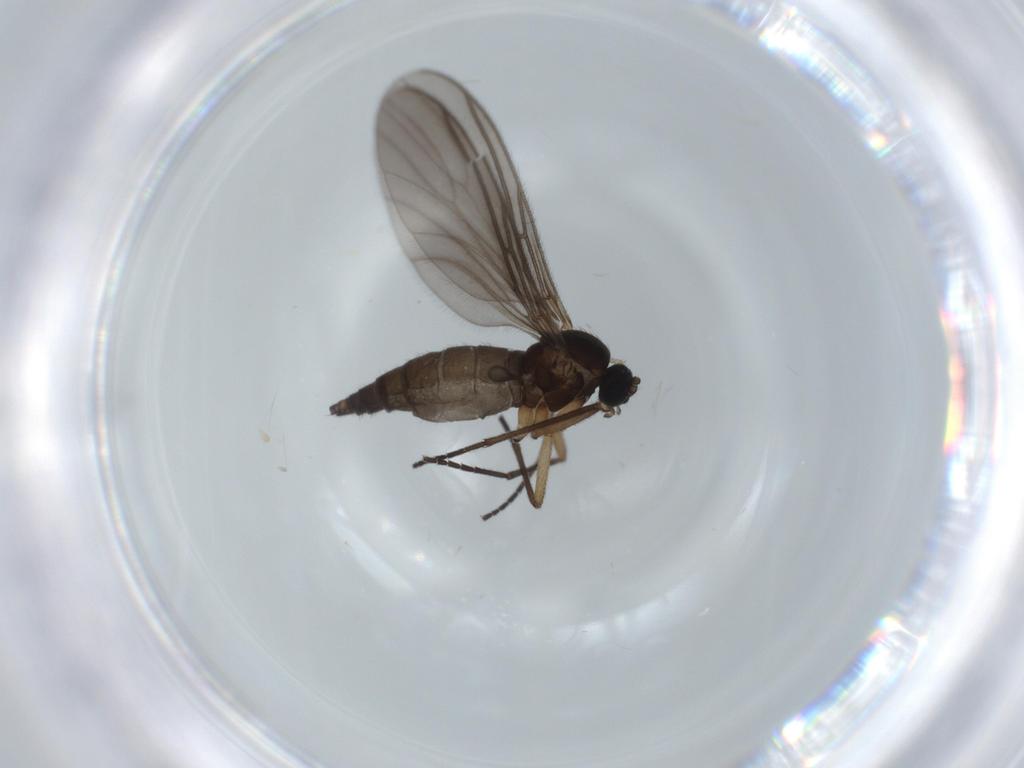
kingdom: Animalia
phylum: Arthropoda
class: Insecta
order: Diptera
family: Sciaridae
